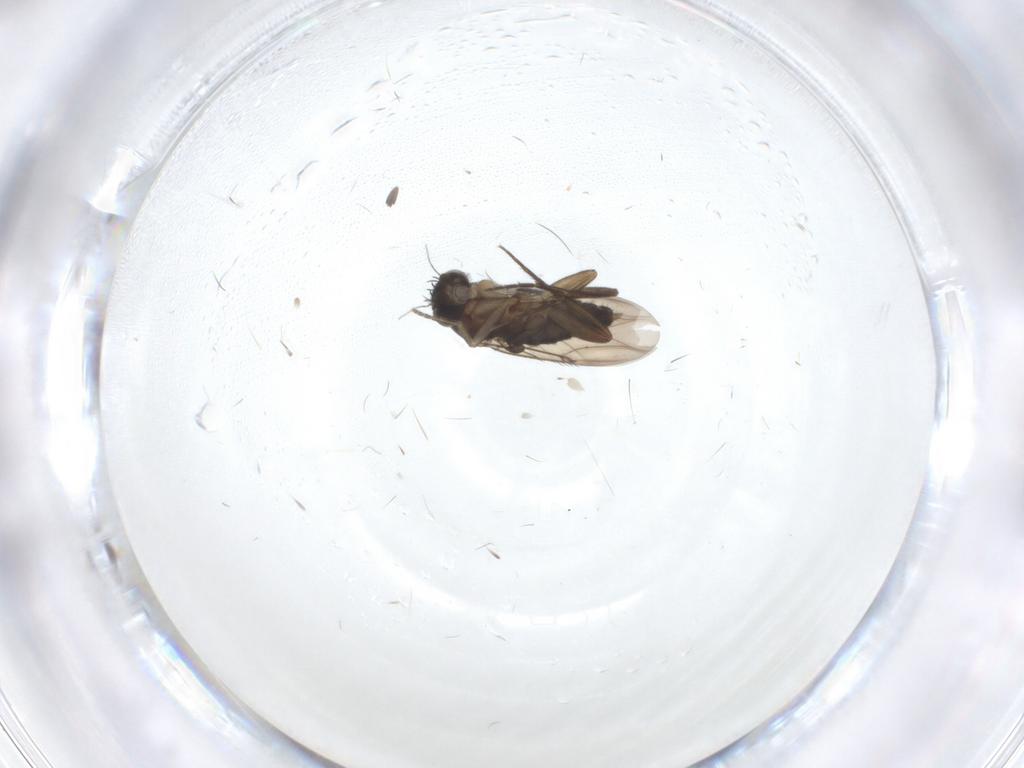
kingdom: Animalia
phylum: Arthropoda
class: Insecta
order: Diptera
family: Phoridae
